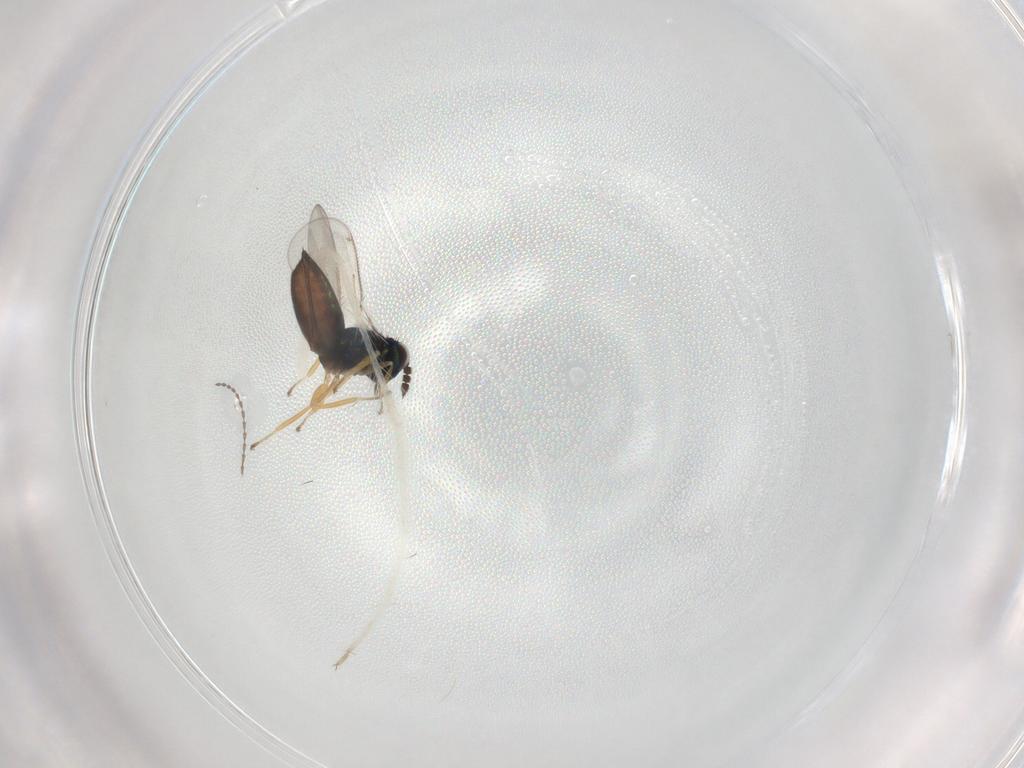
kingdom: Animalia
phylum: Arthropoda
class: Insecta
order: Hymenoptera
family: Eulophidae
